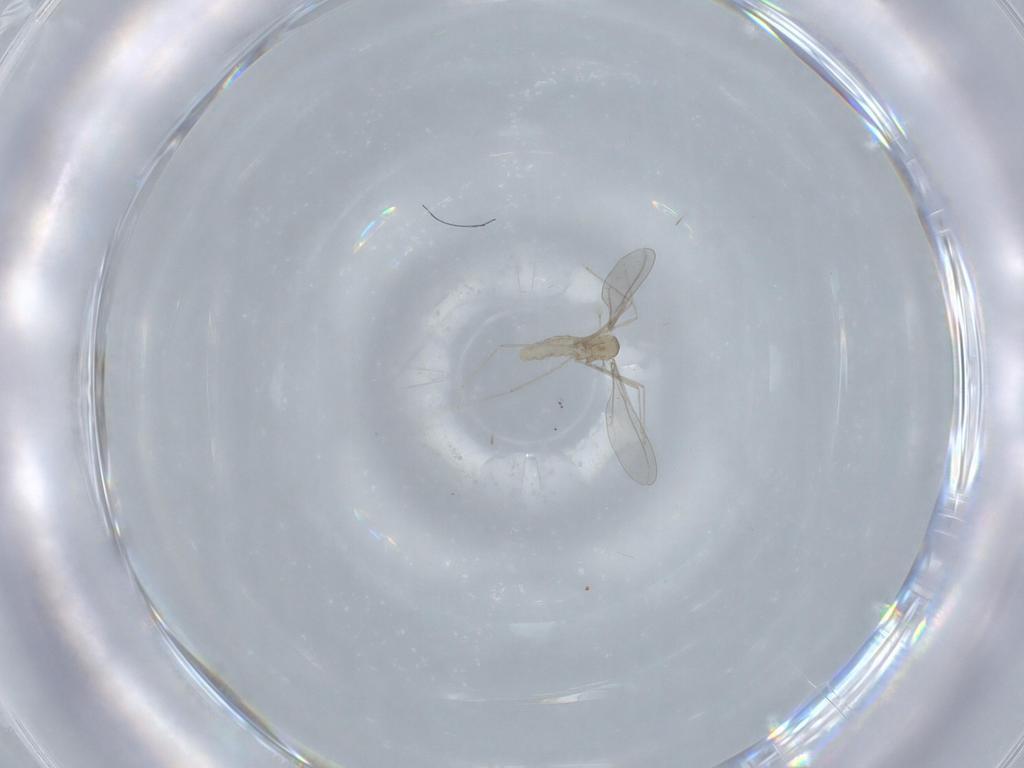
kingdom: Animalia
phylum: Arthropoda
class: Insecta
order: Diptera
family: Cecidomyiidae
